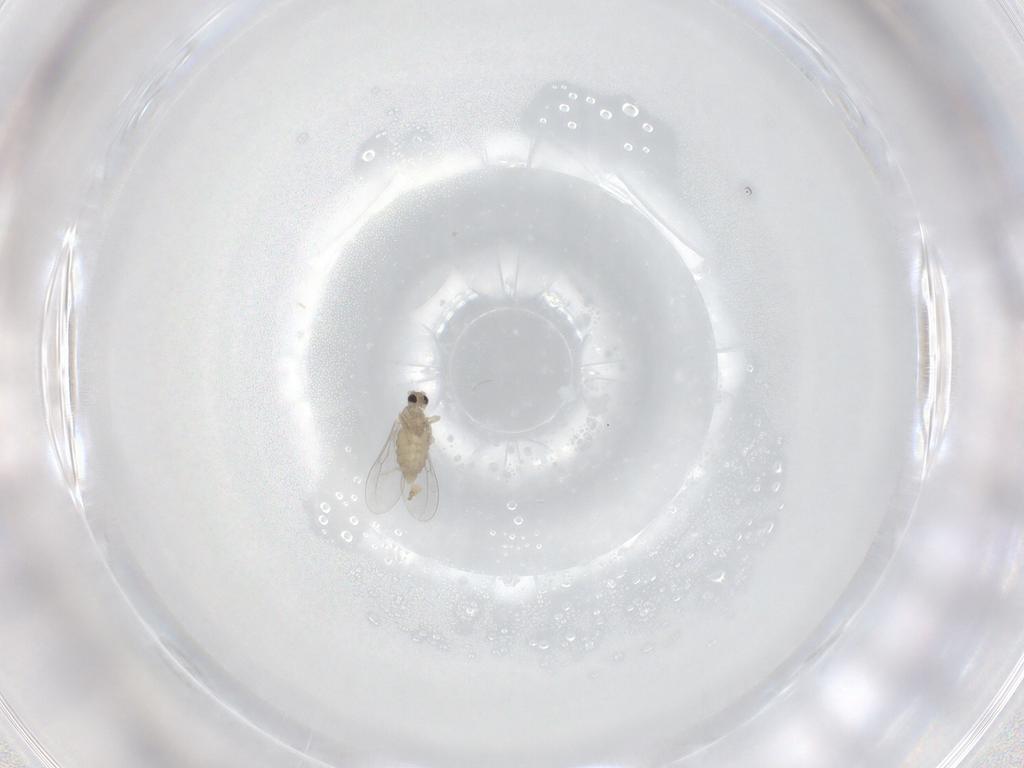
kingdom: Animalia
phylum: Arthropoda
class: Insecta
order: Diptera
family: Cecidomyiidae
